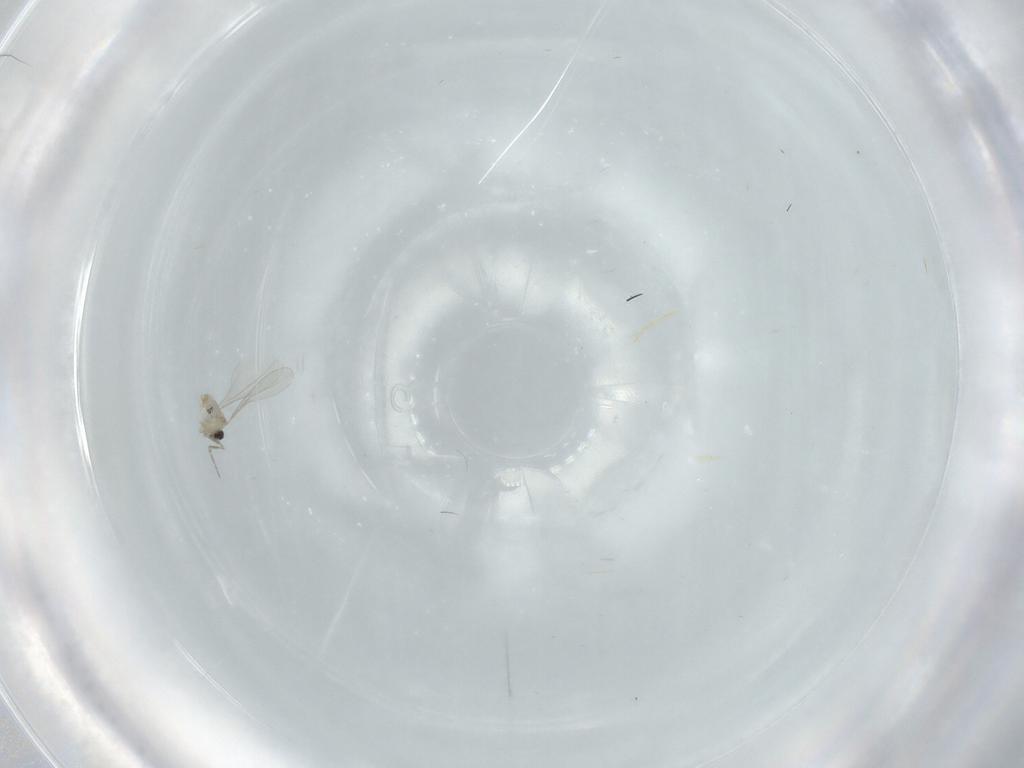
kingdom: Animalia
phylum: Arthropoda
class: Insecta
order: Diptera
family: Cecidomyiidae
